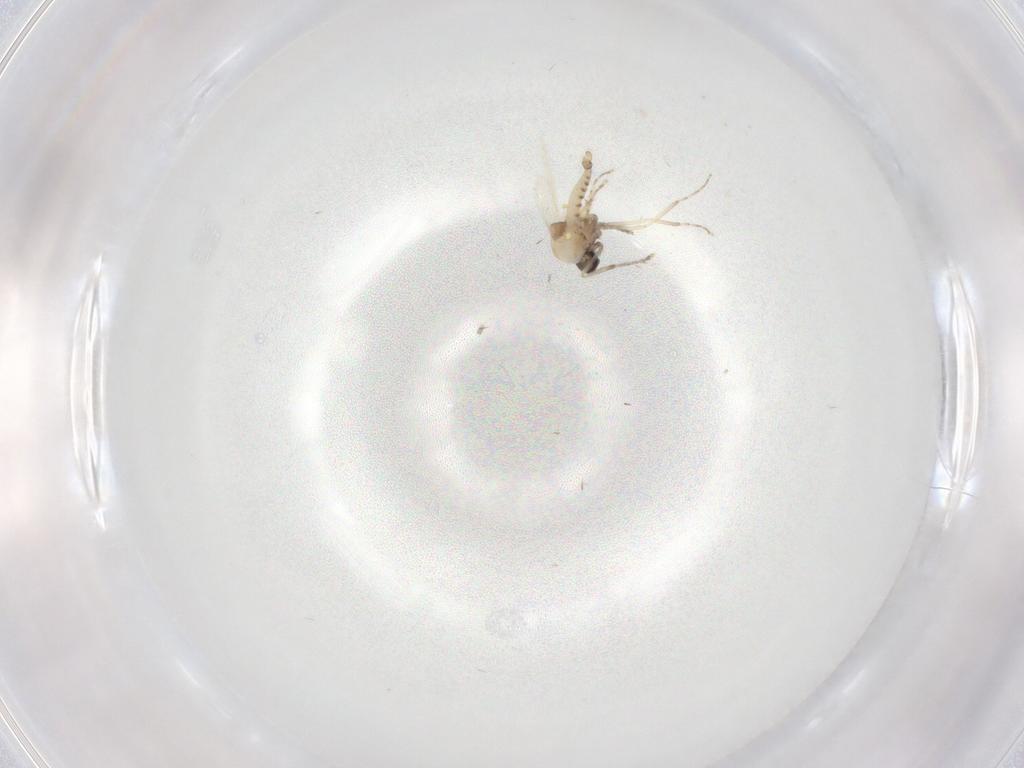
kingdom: Animalia
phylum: Arthropoda
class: Insecta
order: Diptera
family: Ceratopogonidae
